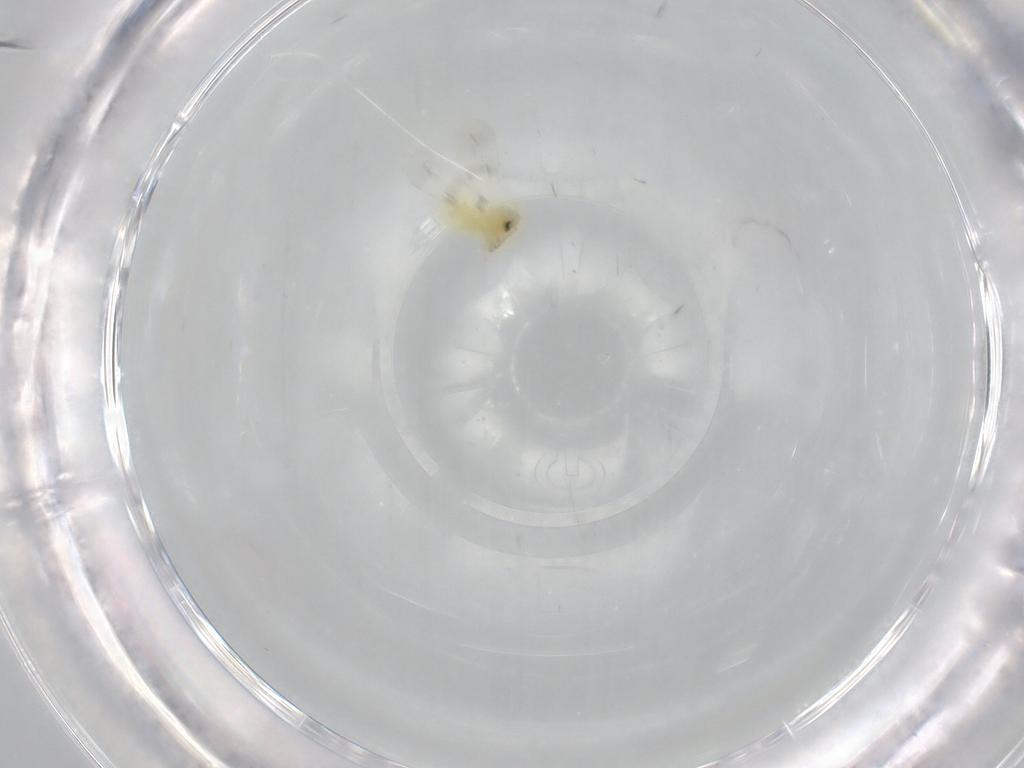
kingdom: Animalia
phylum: Arthropoda
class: Insecta
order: Hemiptera
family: Aleyrodidae
